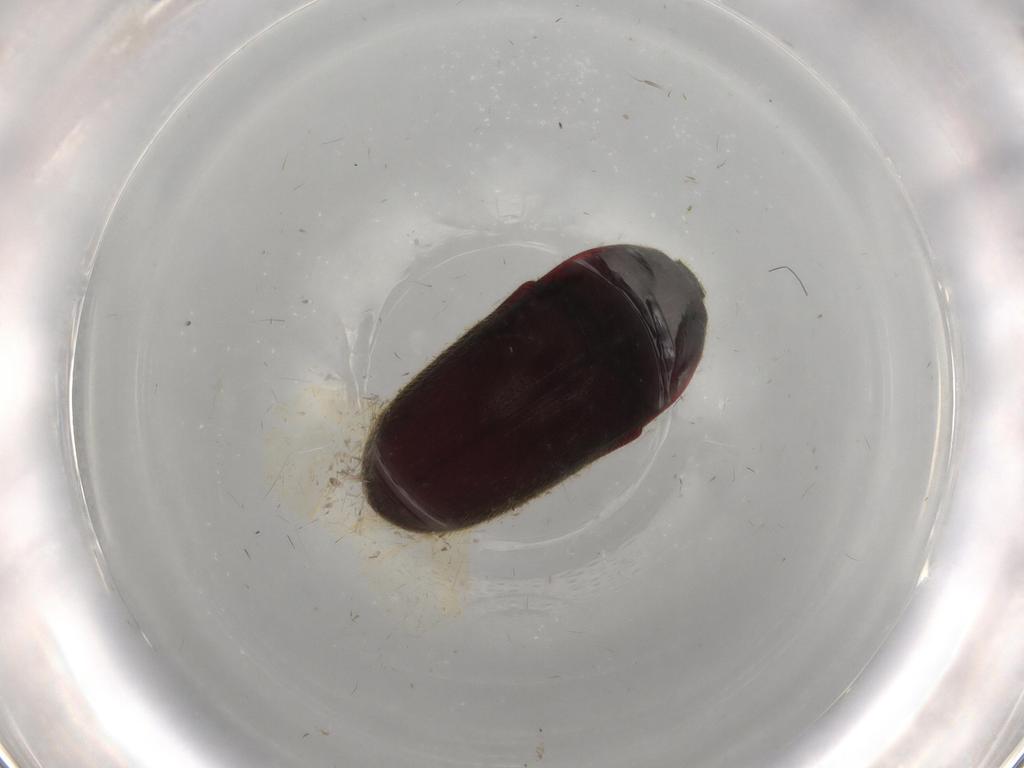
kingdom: Animalia
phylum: Arthropoda
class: Insecta
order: Coleoptera
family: Throscidae
